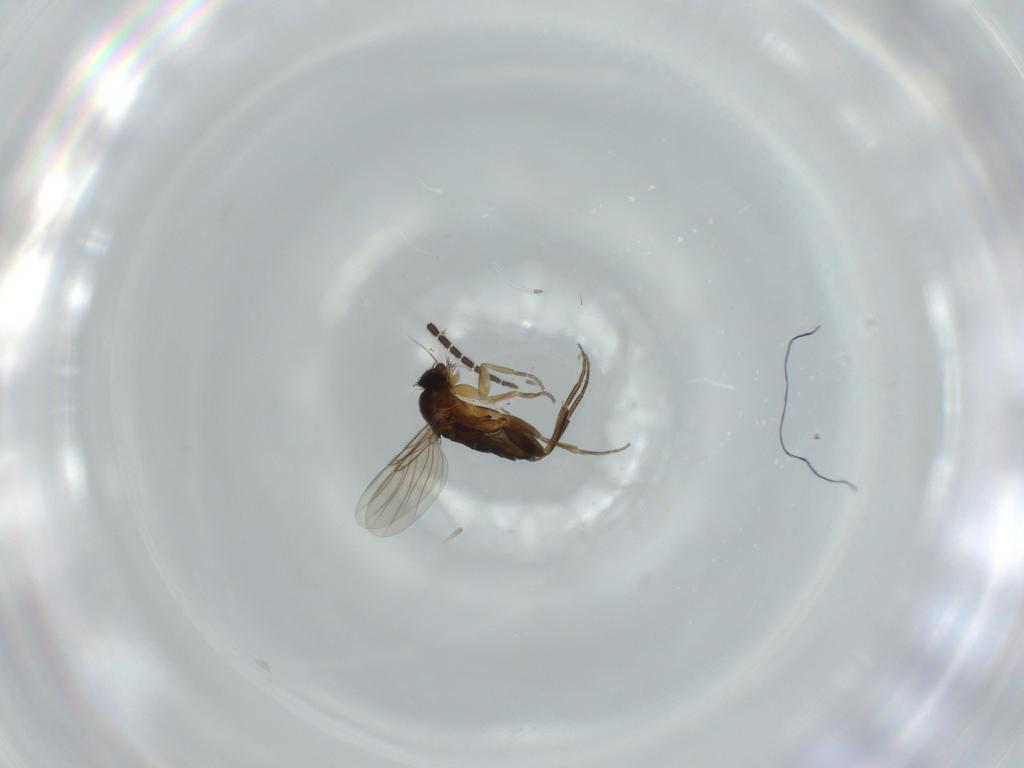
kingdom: Animalia
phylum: Arthropoda
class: Insecta
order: Diptera
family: Phoridae
